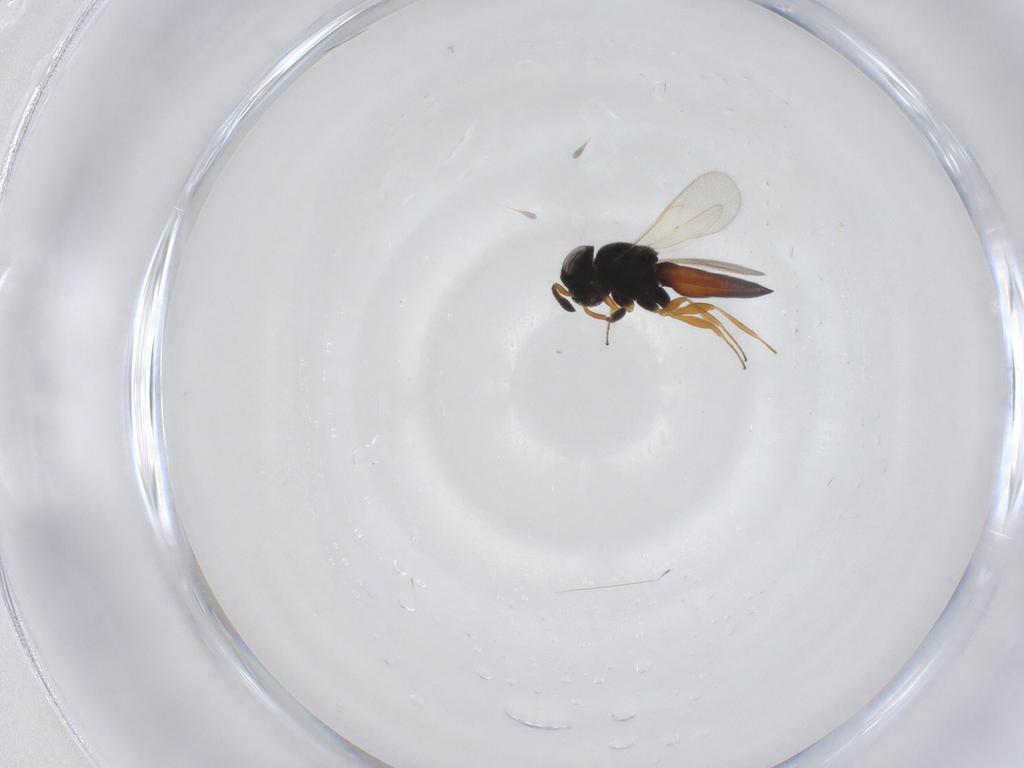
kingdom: Animalia
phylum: Arthropoda
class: Insecta
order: Hymenoptera
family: Scelionidae
